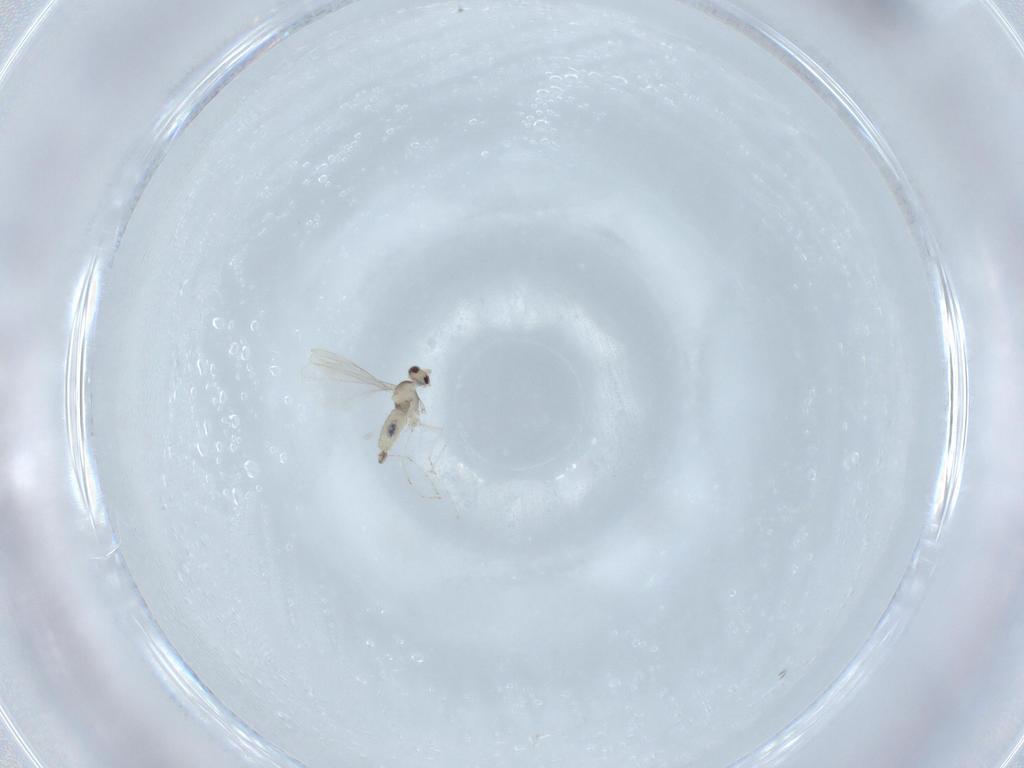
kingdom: Animalia
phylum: Arthropoda
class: Insecta
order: Diptera
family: Cecidomyiidae
